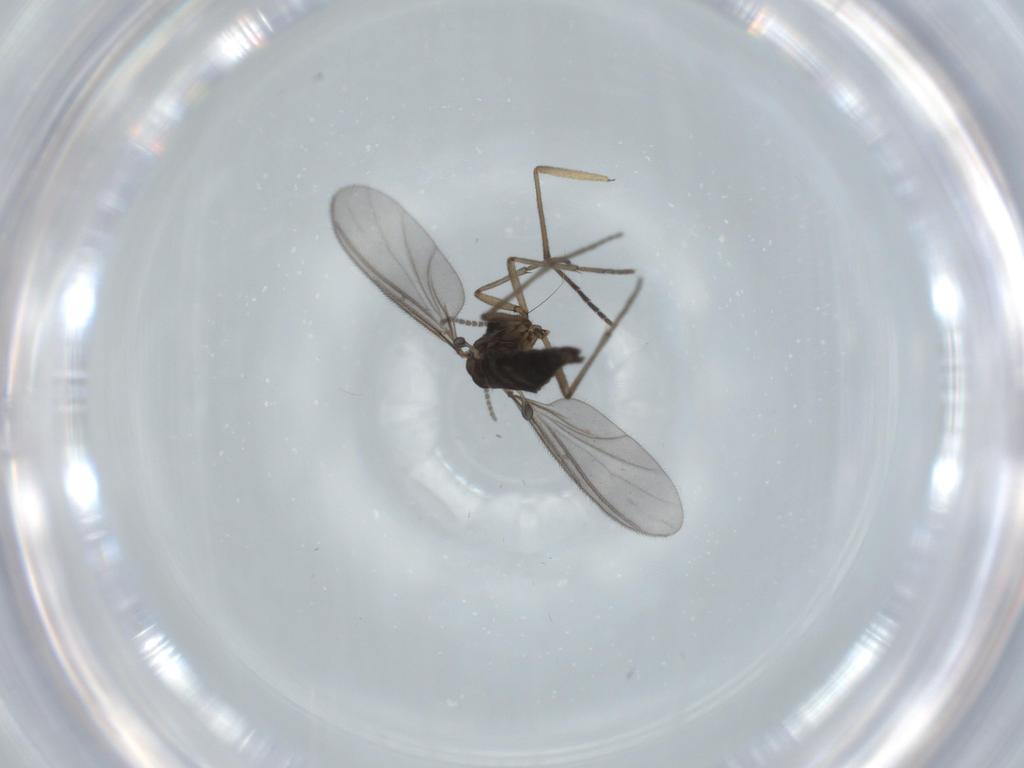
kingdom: Animalia
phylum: Arthropoda
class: Insecta
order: Diptera
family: Sciaridae
